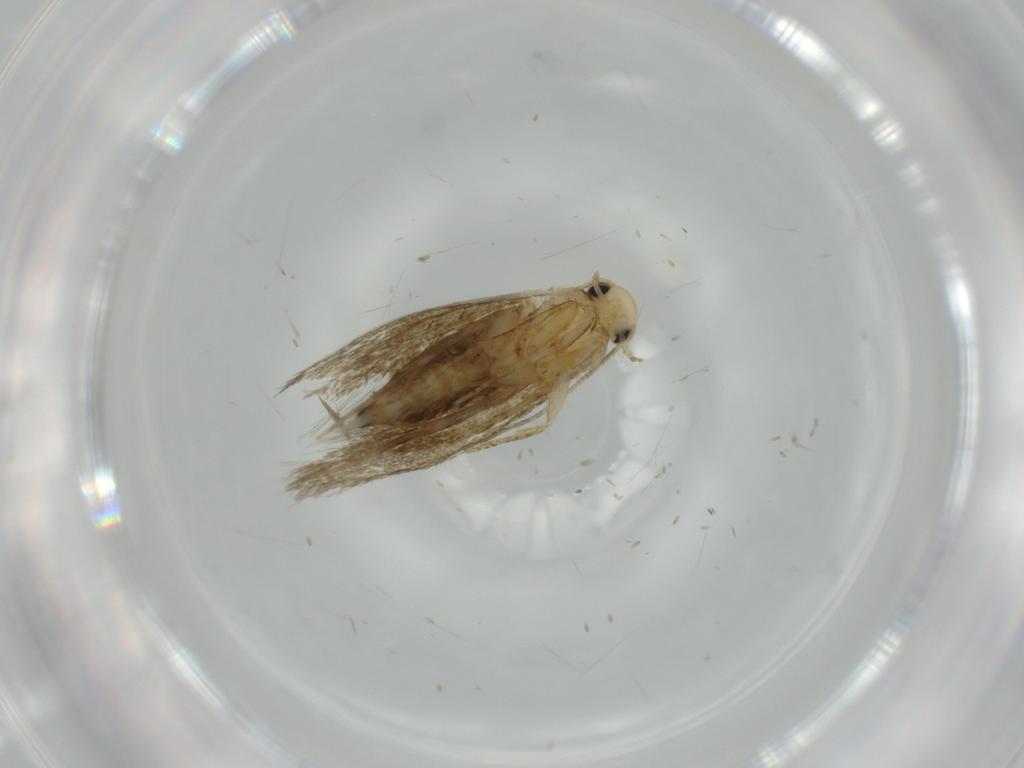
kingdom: Animalia
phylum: Arthropoda
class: Insecta
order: Lepidoptera
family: Tineidae
